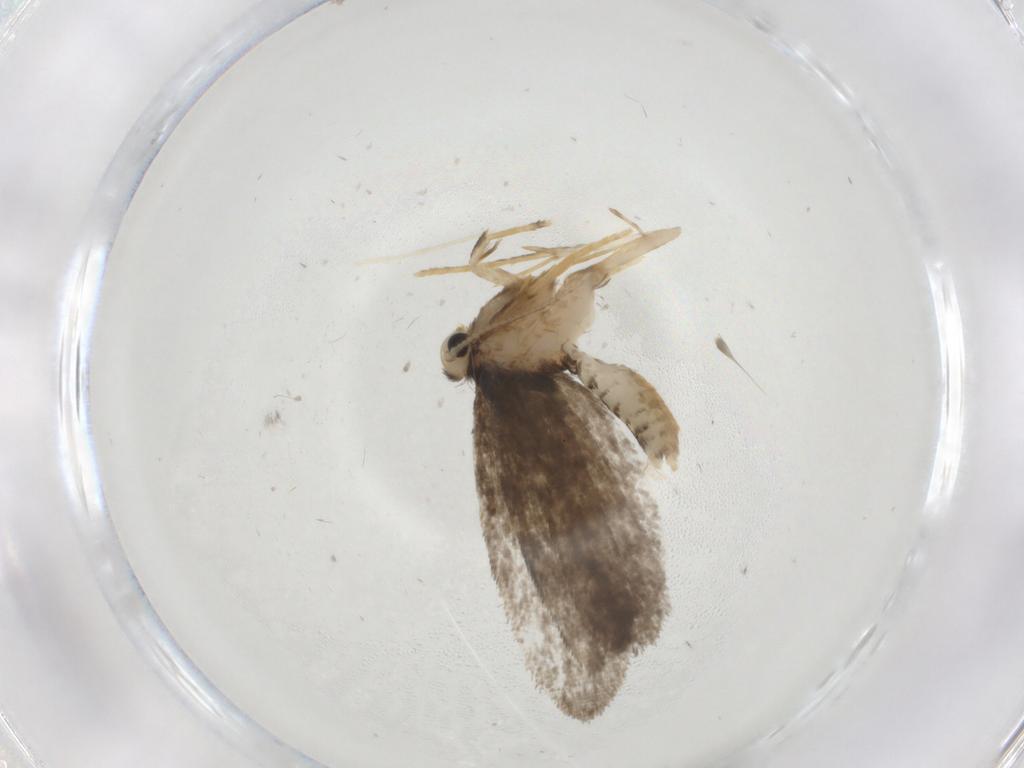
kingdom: Animalia
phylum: Arthropoda
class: Insecta
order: Lepidoptera
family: Psychidae
